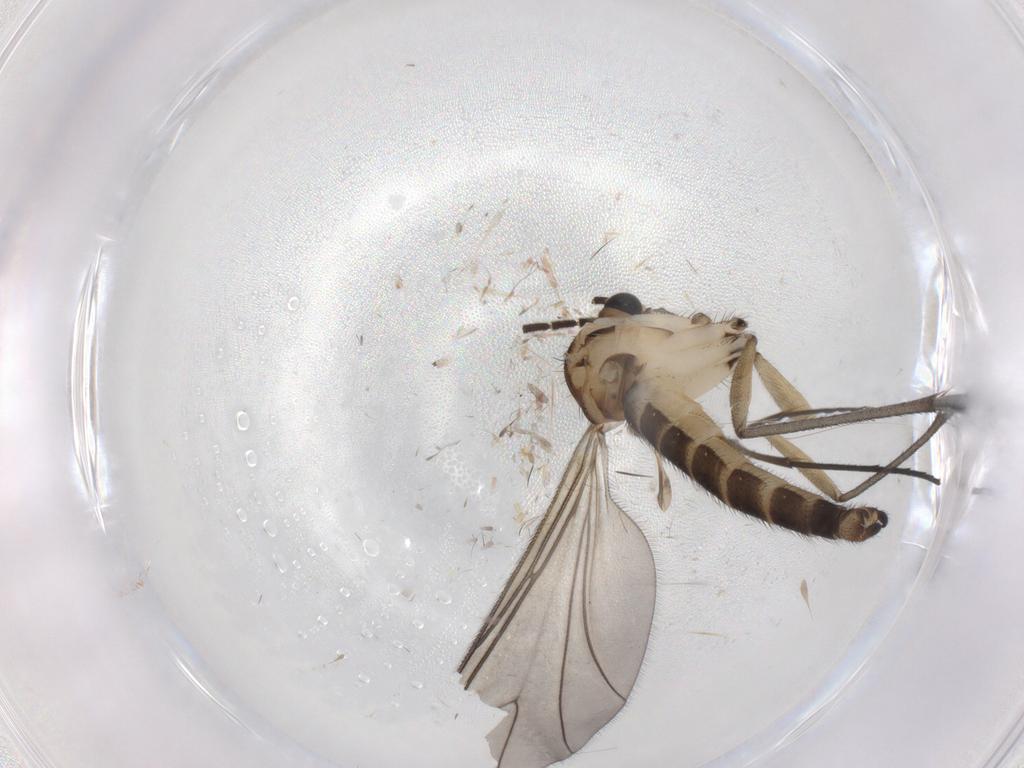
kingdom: Animalia
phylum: Arthropoda
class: Insecta
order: Diptera
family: Sciaridae
